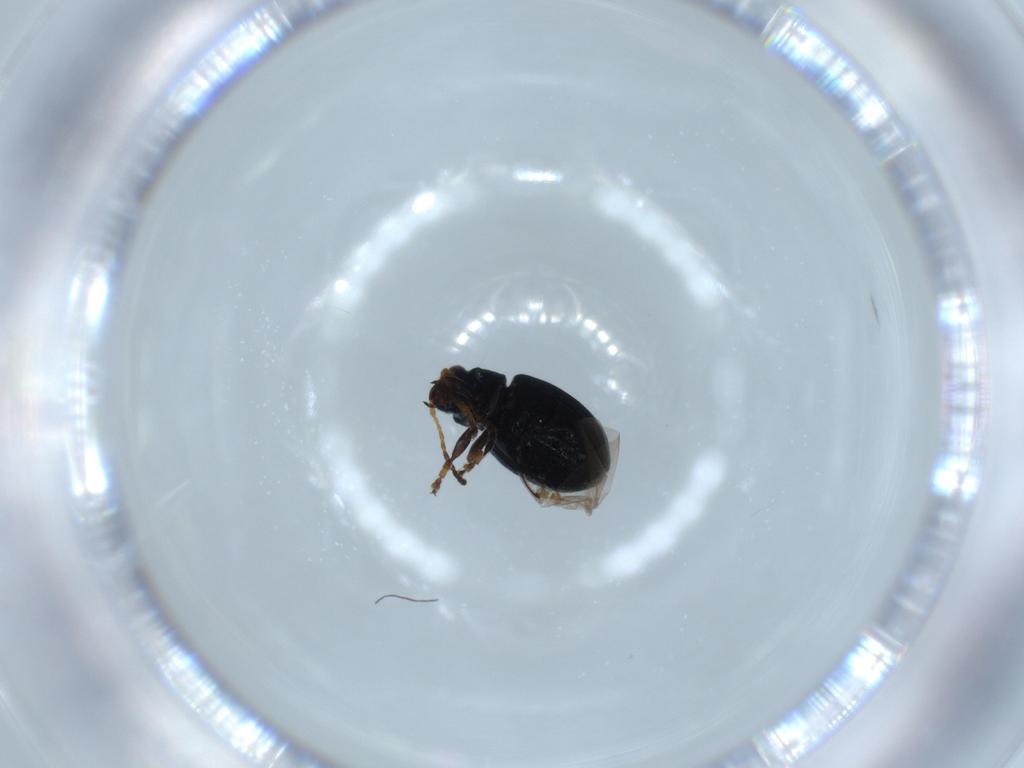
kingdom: Animalia
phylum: Arthropoda
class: Insecta
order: Coleoptera
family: Chrysomelidae
